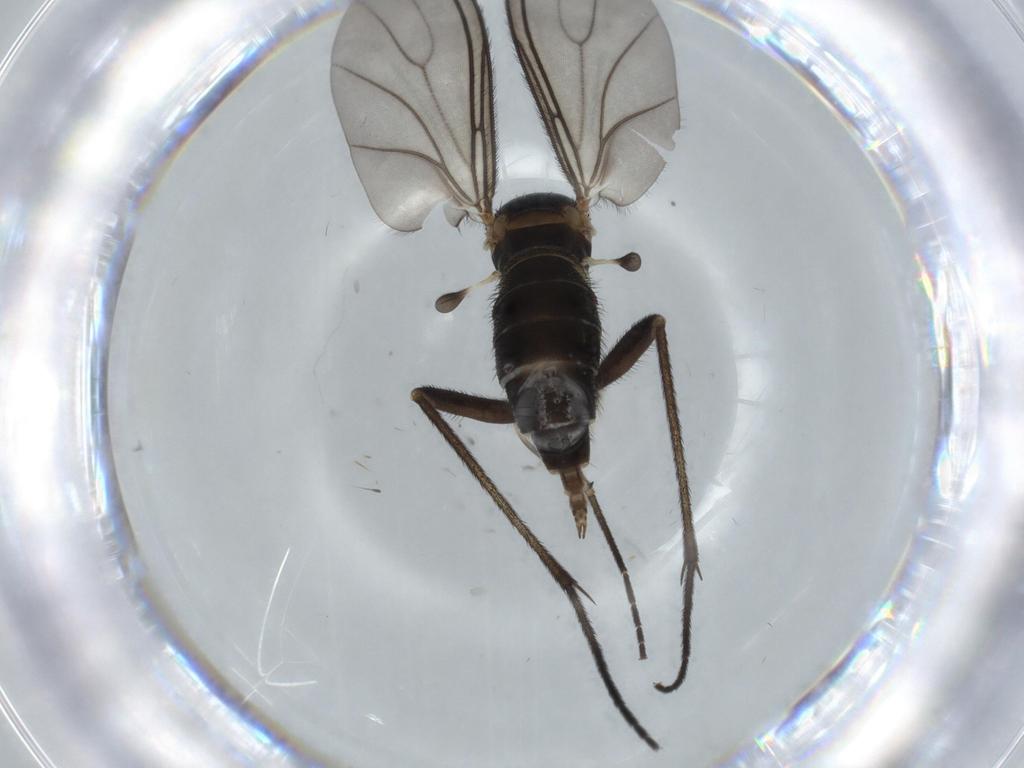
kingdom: Animalia
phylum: Arthropoda
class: Insecta
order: Diptera
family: Sciaridae
